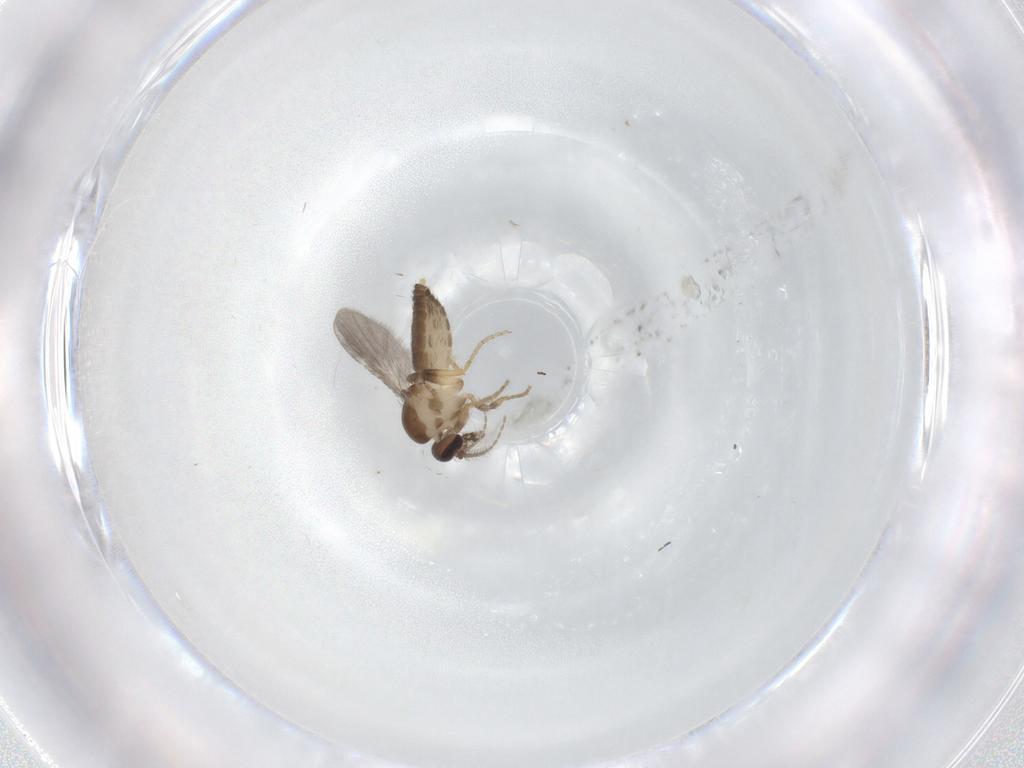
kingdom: Animalia
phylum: Arthropoda
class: Insecta
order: Diptera
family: Ceratopogonidae
